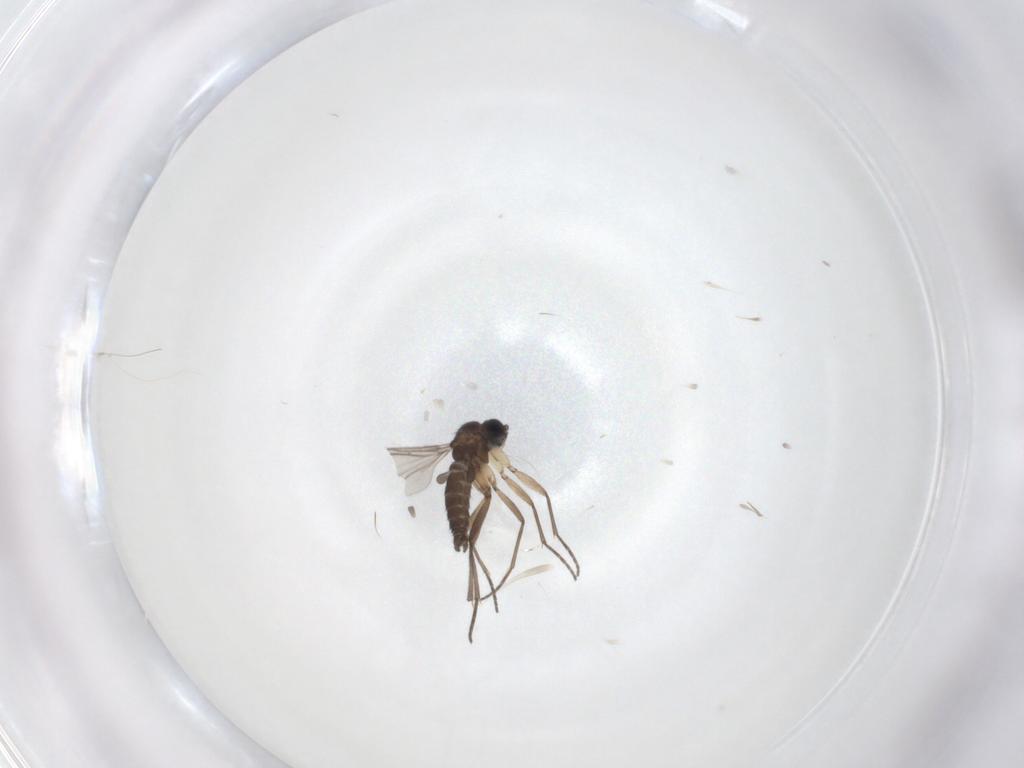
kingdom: Animalia
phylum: Arthropoda
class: Insecta
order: Diptera
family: Sciaridae
